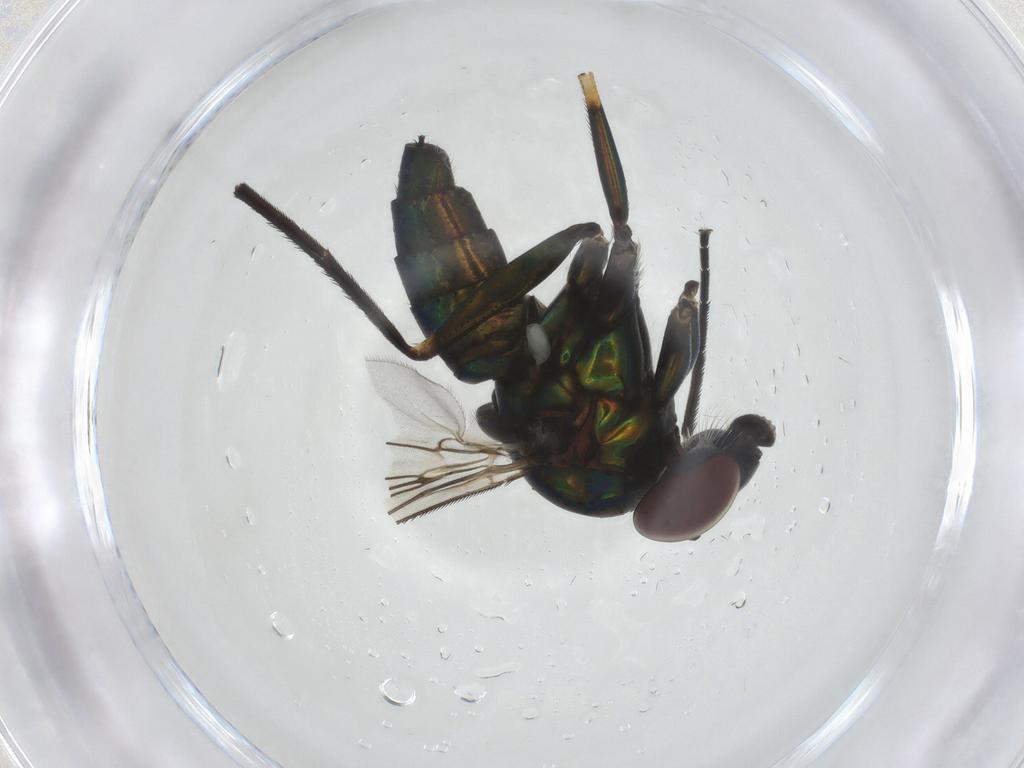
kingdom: Animalia
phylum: Arthropoda
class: Insecta
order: Diptera
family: Dolichopodidae
